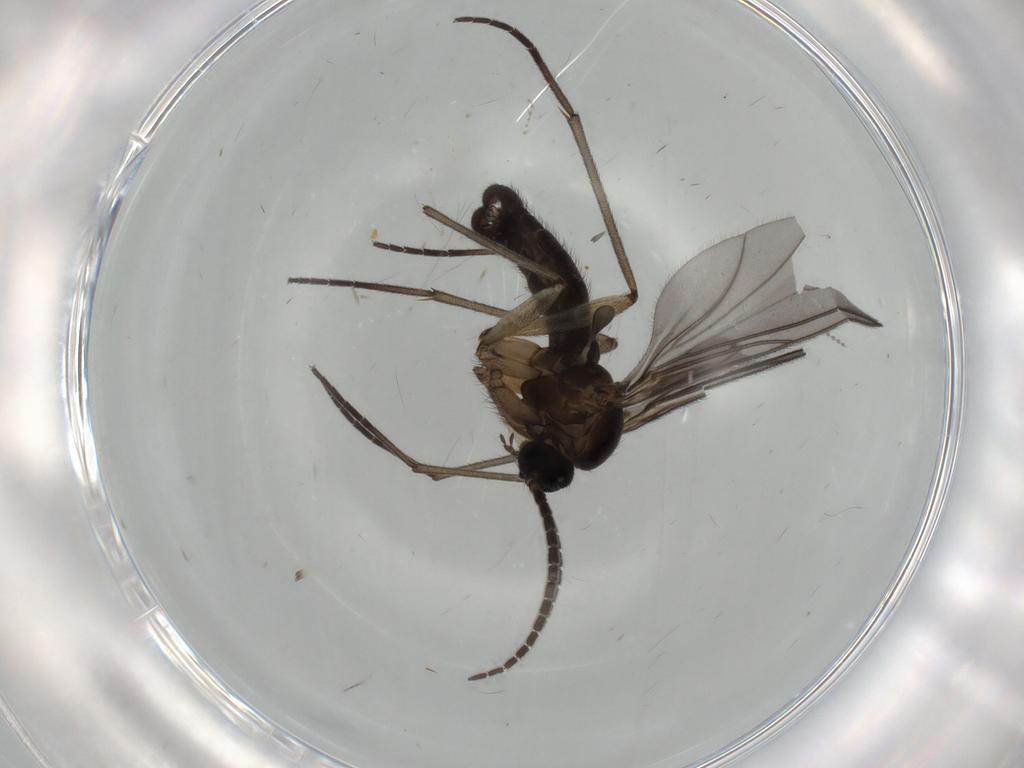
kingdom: Animalia
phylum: Arthropoda
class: Insecta
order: Diptera
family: Sciaridae
